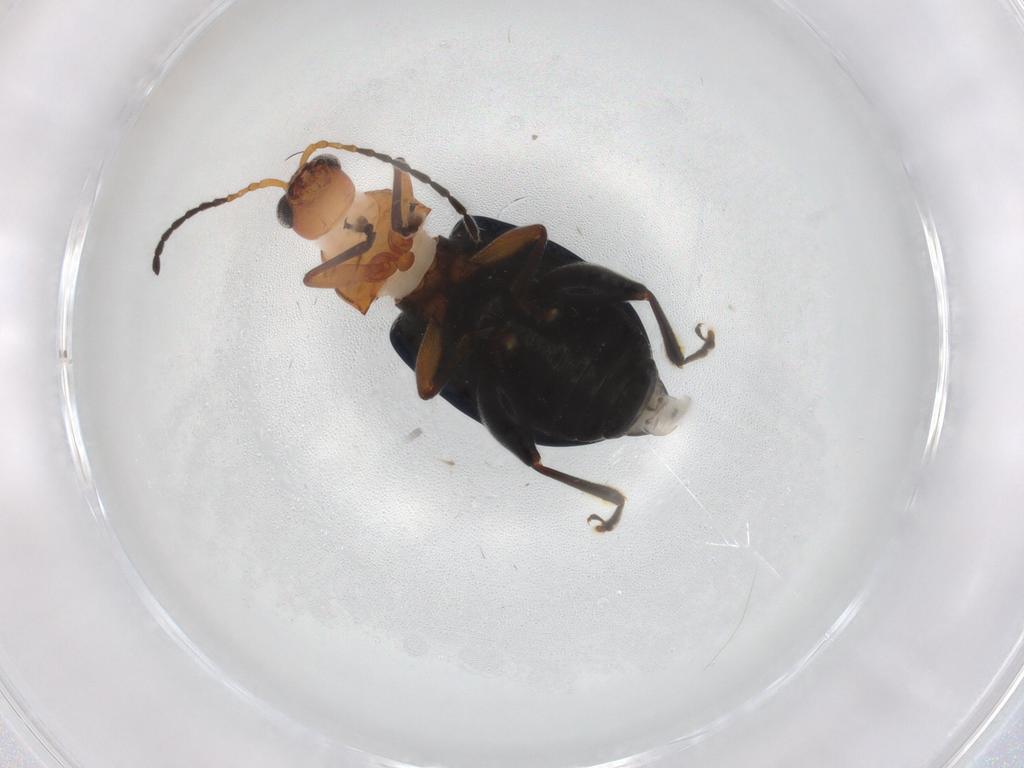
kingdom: Animalia
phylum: Arthropoda
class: Insecta
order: Coleoptera
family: Chrysomelidae
